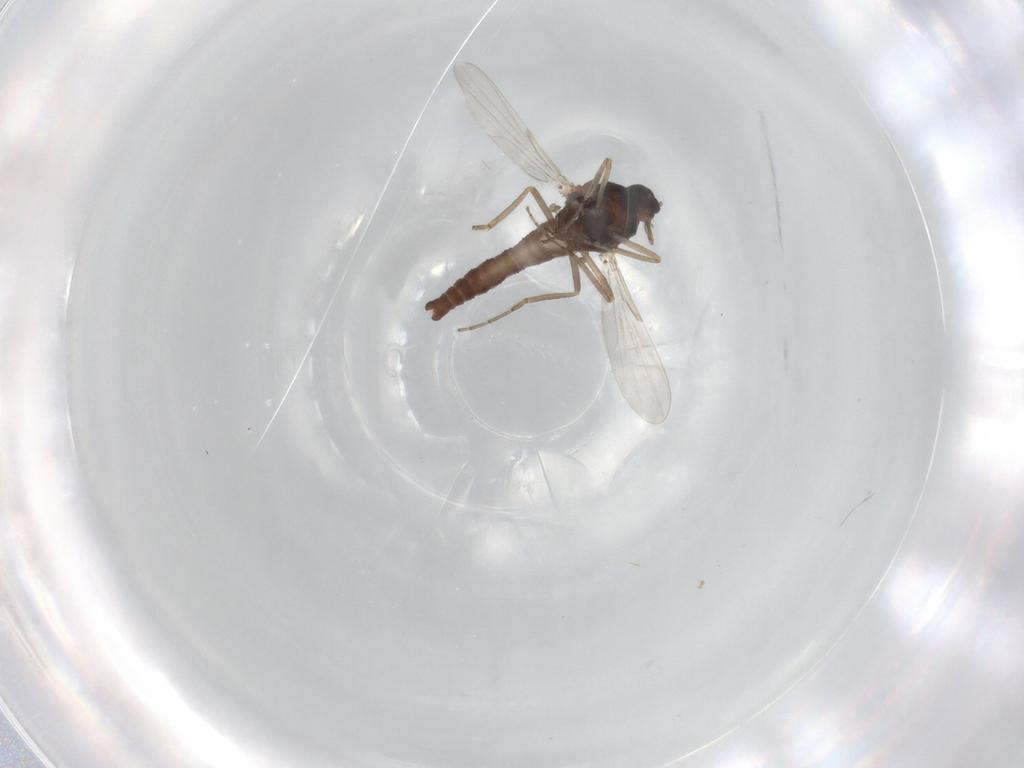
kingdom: Animalia
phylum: Arthropoda
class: Insecta
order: Diptera
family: Ceratopogonidae
